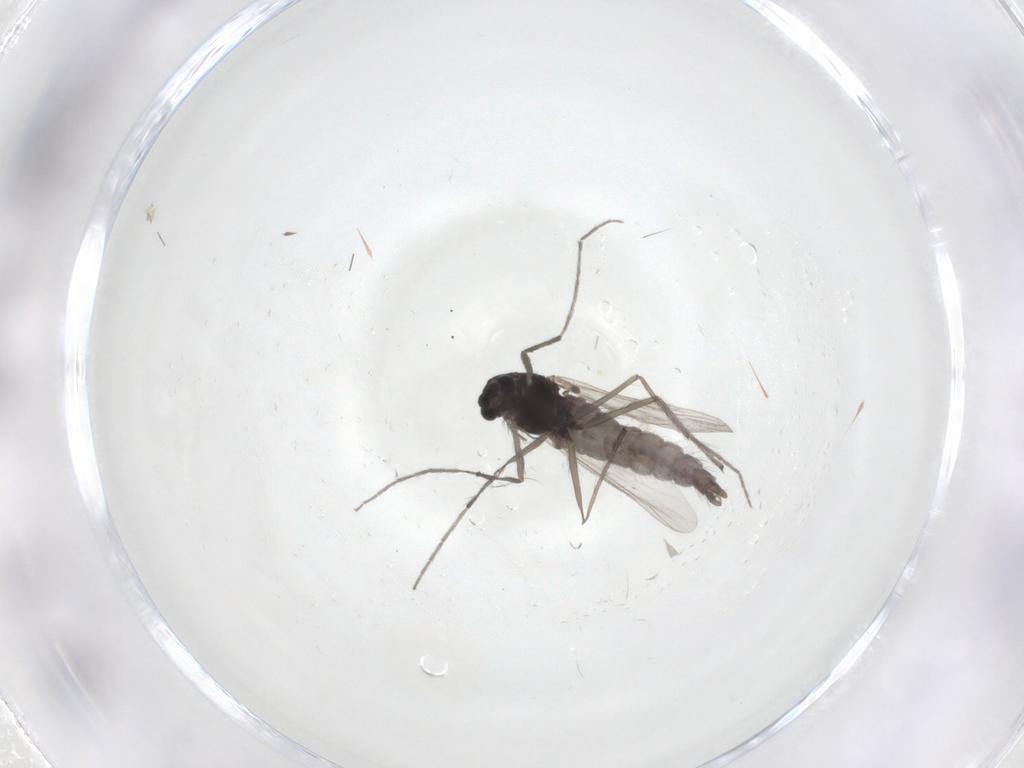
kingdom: Animalia
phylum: Arthropoda
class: Insecta
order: Diptera
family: Chironomidae
